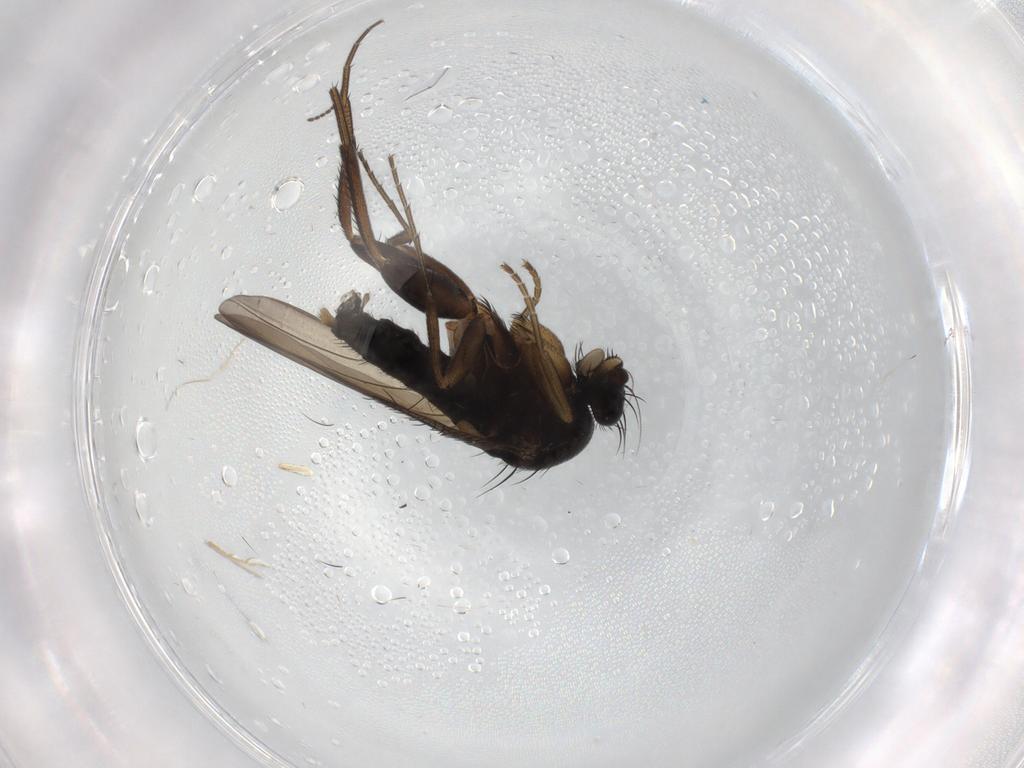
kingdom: Animalia
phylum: Arthropoda
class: Insecta
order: Diptera
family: Phoridae
